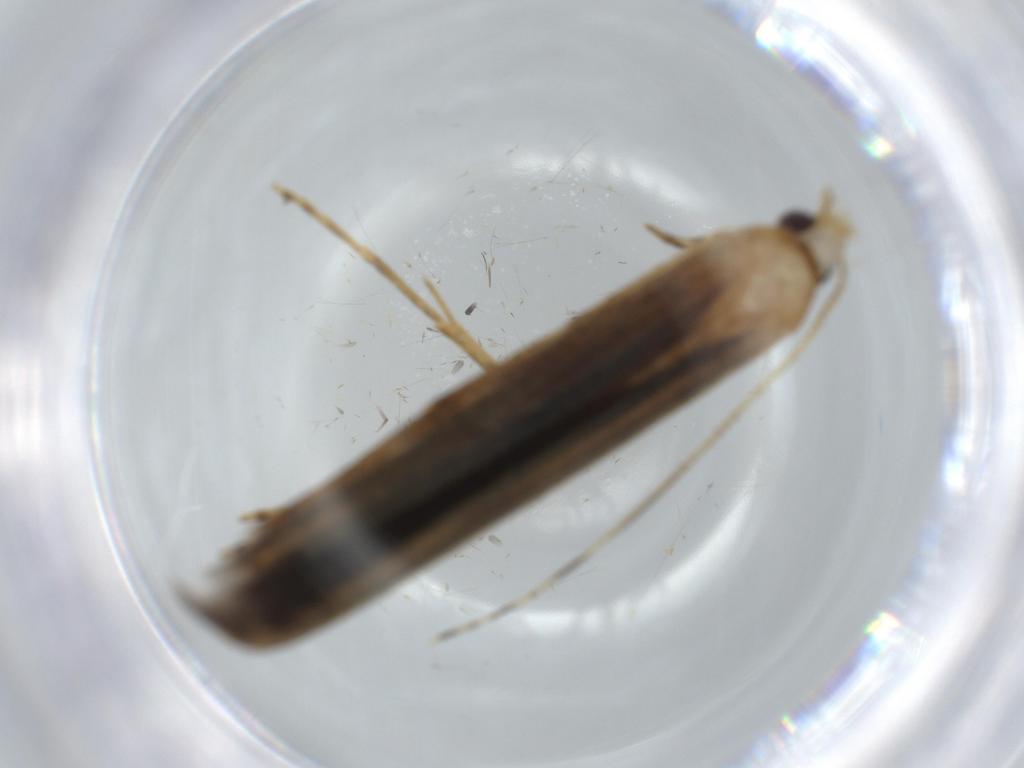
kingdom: Animalia
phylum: Arthropoda
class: Insecta
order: Lepidoptera
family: Batrachedridae
